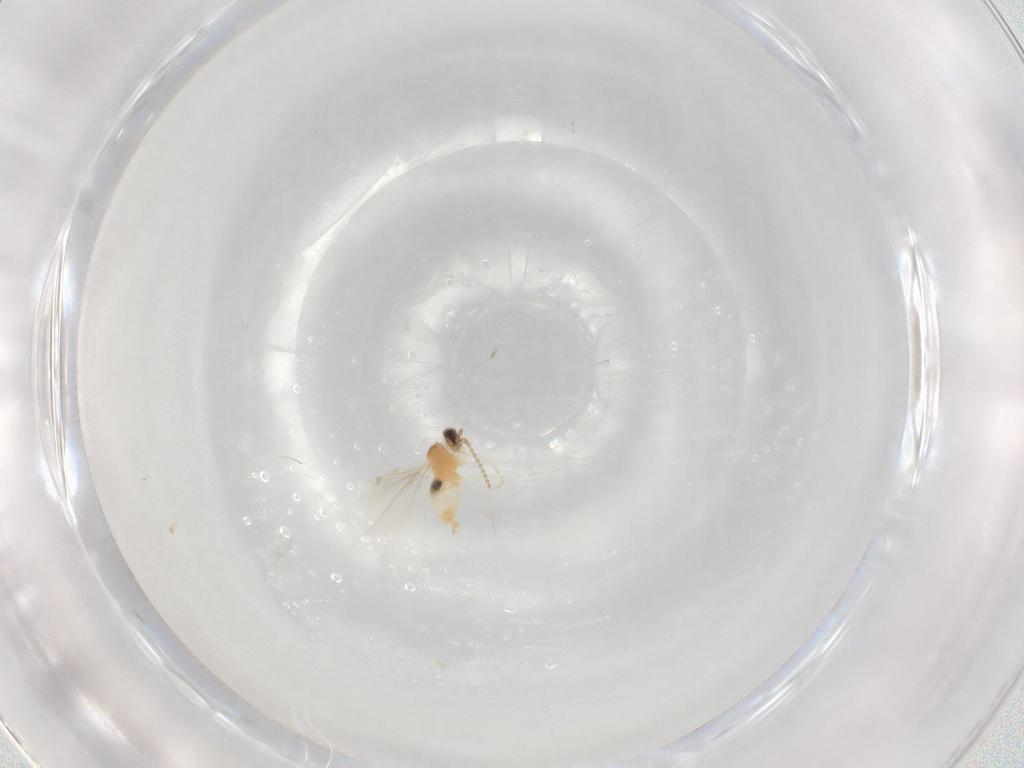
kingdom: Animalia
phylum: Arthropoda
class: Insecta
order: Diptera
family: Cecidomyiidae
